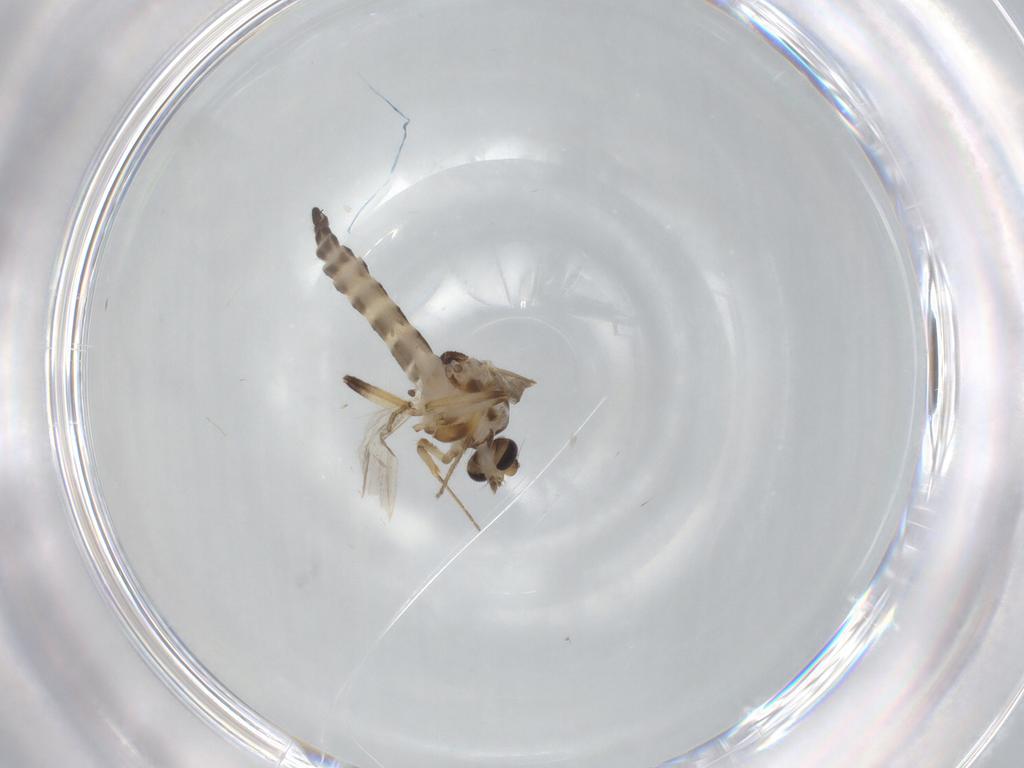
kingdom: Animalia
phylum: Arthropoda
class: Insecta
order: Diptera
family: Ceratopogonidae
